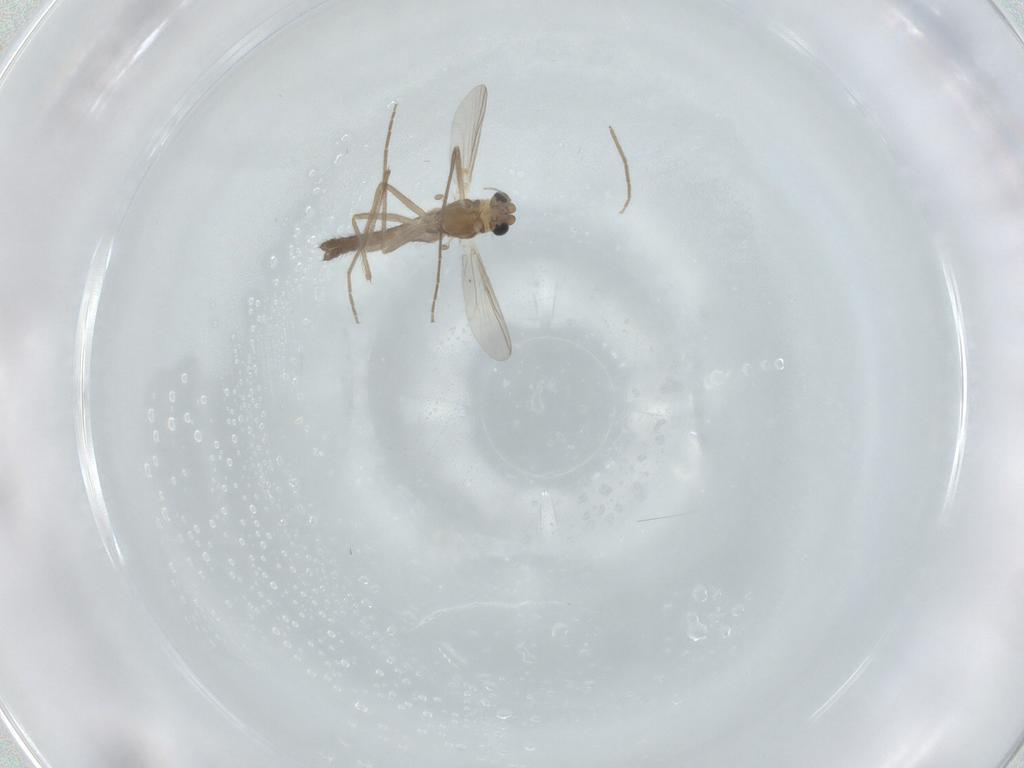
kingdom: Animalia
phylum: Arthropoda
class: Insecta
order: Diptera
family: Chironomidae
